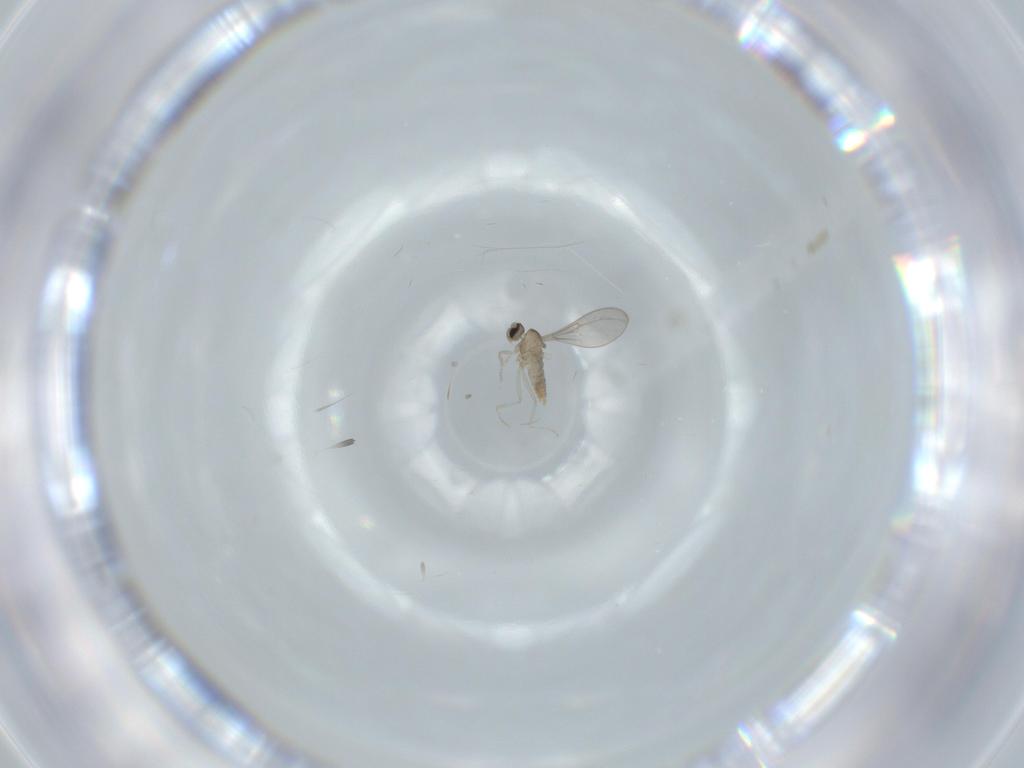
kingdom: Animalia
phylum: Arthropoda
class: Insecta
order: Diptera
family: Cecidomyiidae
